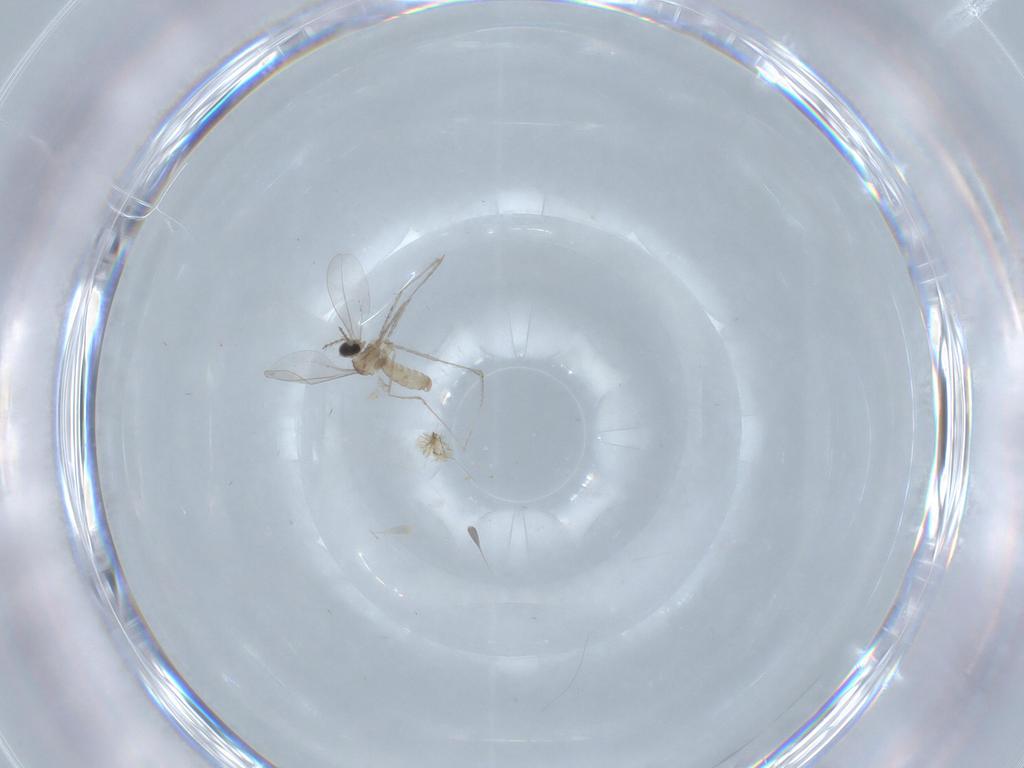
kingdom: Animalia
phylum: Arthropoda
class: Insecta
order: Diptera
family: Cecidomyiidae
